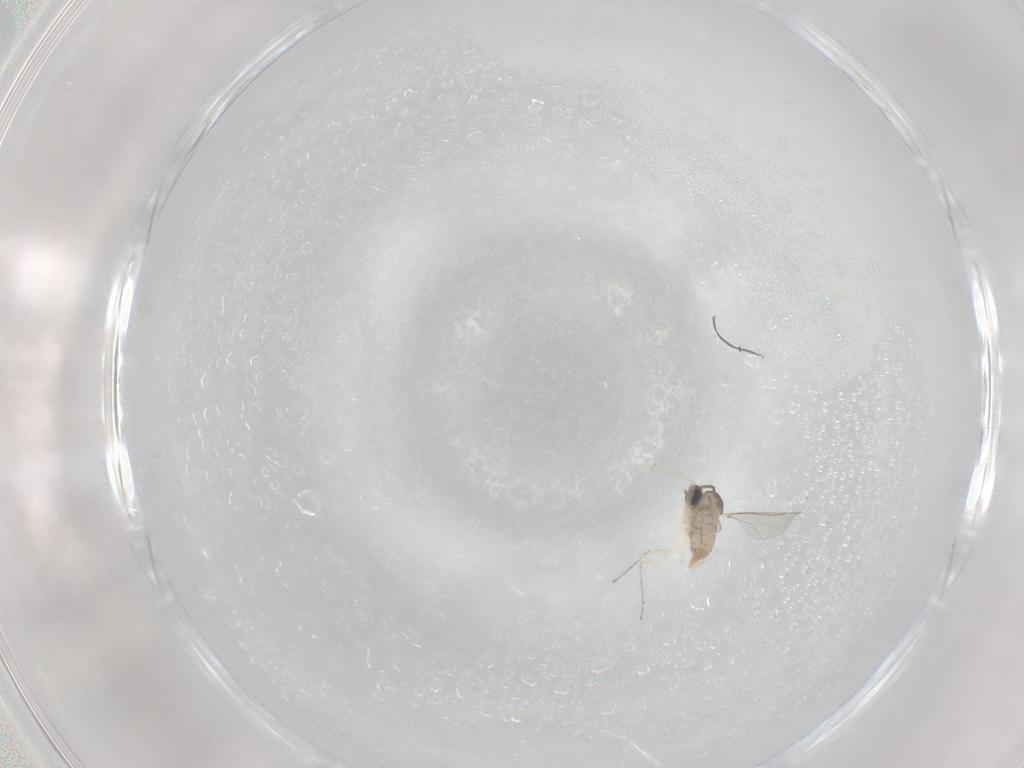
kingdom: Animalia
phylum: Arthropoda
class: Insecta
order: Diptera
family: Cecidomyiidae
